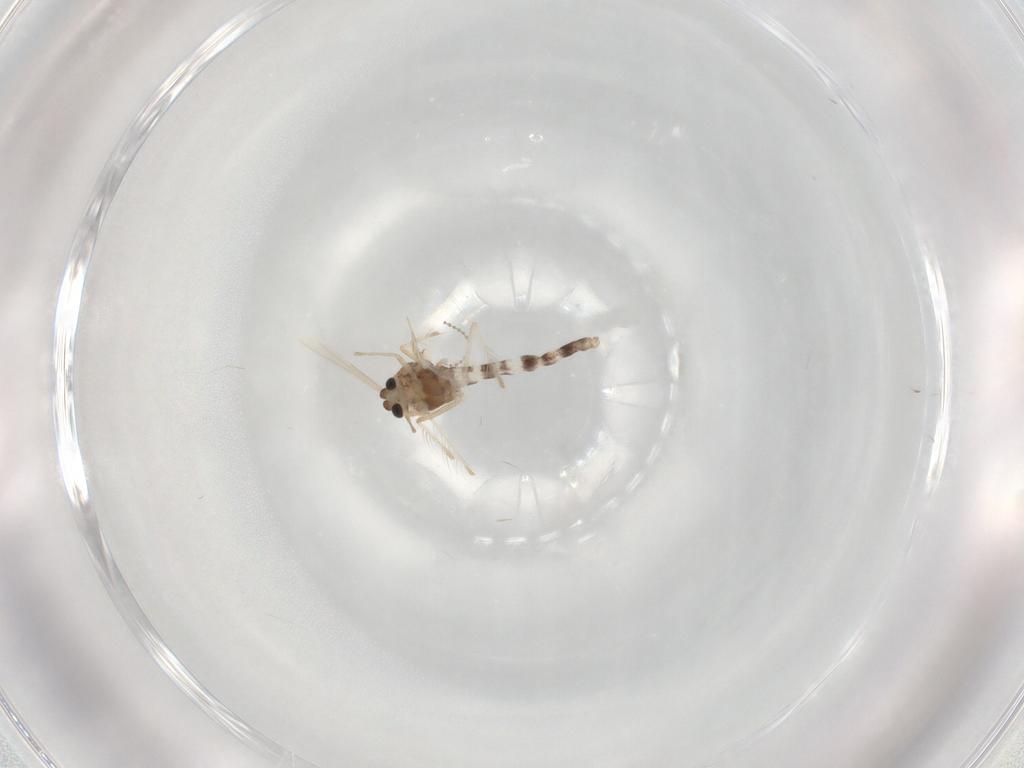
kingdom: Animalia
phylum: Arthropoda
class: Insecta
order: Diptera
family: Chironomidae
